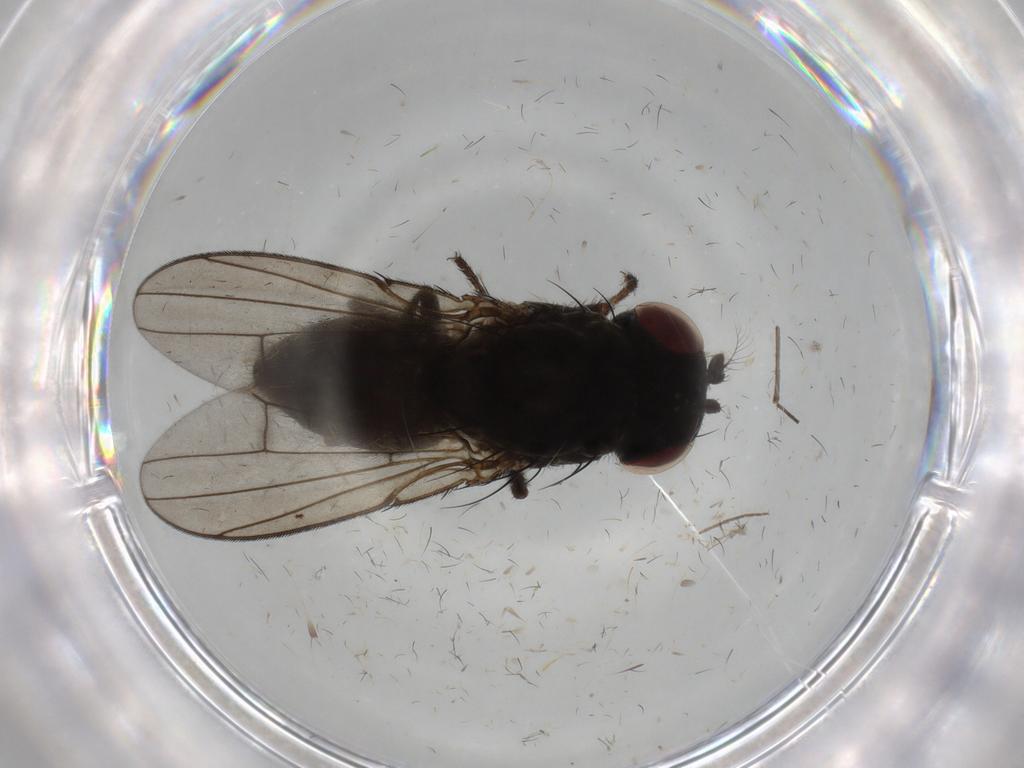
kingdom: Animalia
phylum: Arthropoda
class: Insecta
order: Diptera
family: Ephydridae
